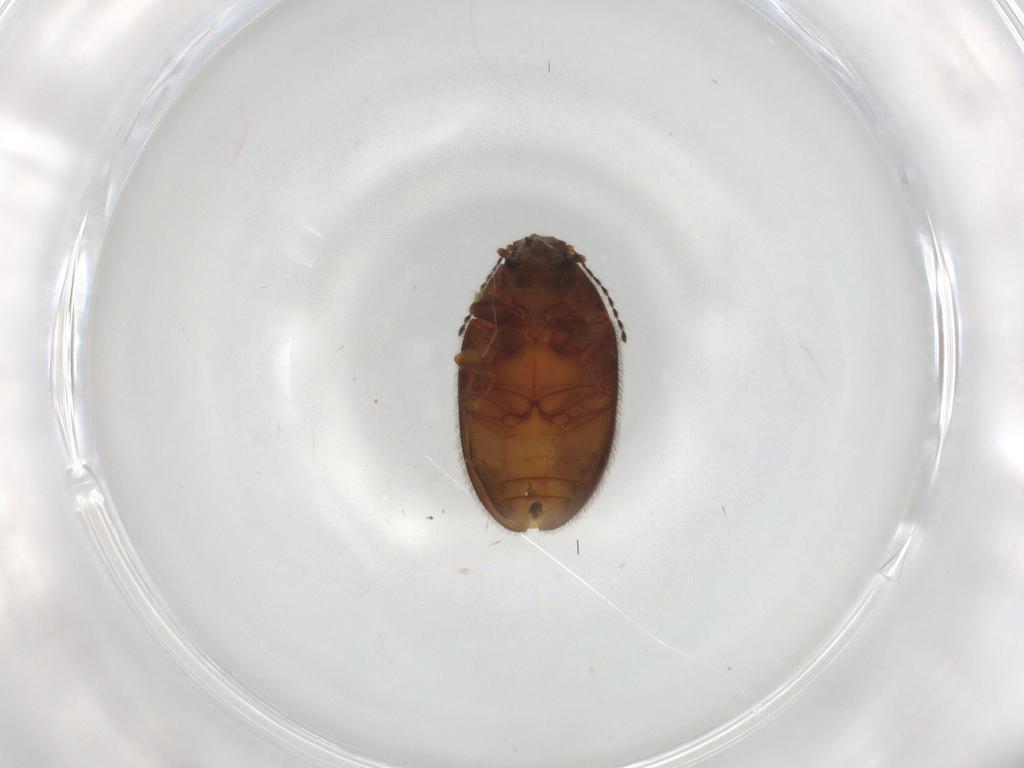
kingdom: Animalia
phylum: Arthropoda
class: Insecta
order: Coleoptera
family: Limnichidae
